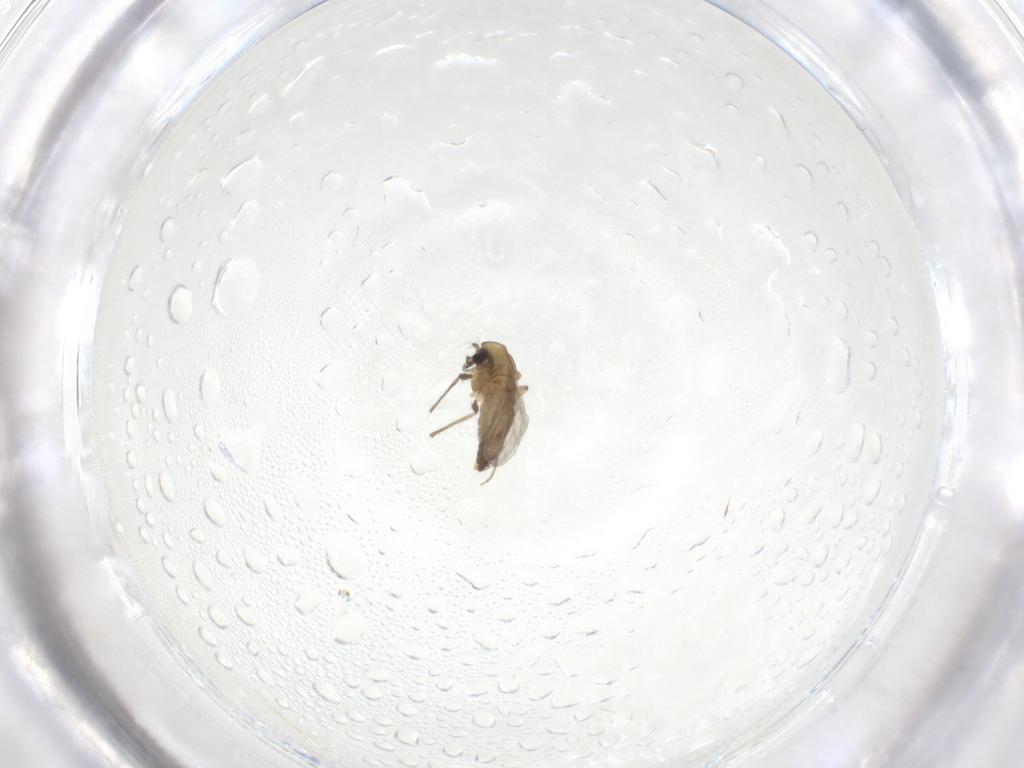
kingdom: Animalia
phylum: Arthropoda
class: Insecta
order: Diptera
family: Chironomidae
